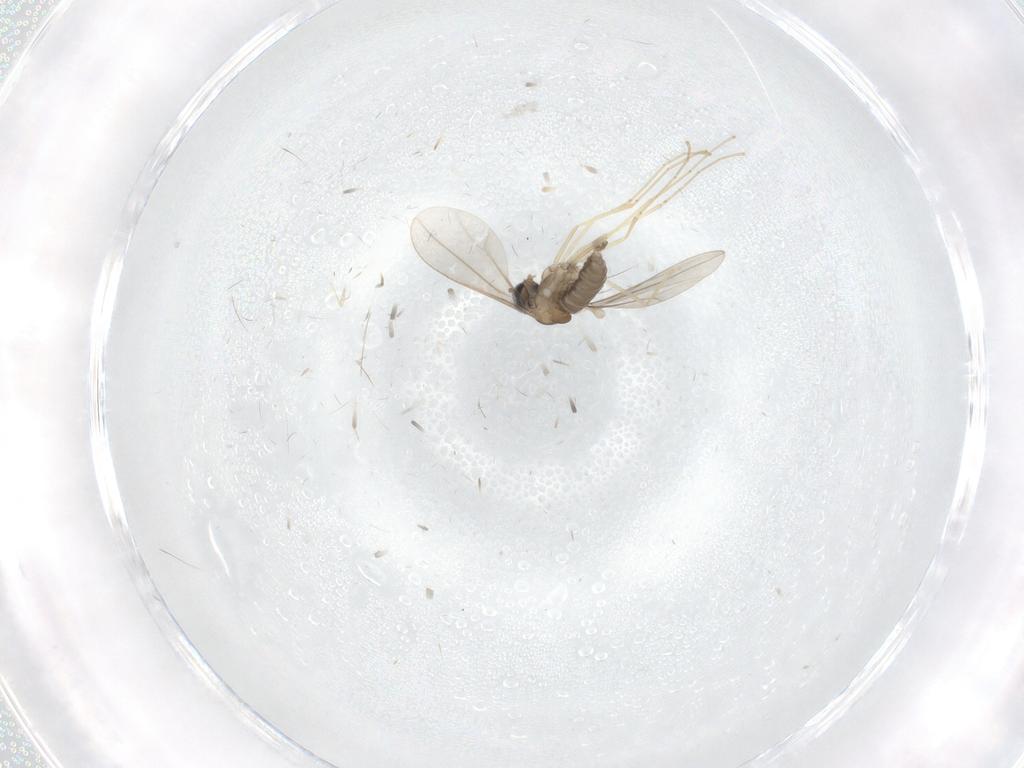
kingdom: Animalia
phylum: Arthropoda
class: Insecta
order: Diptera
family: Cecidomyiidae
